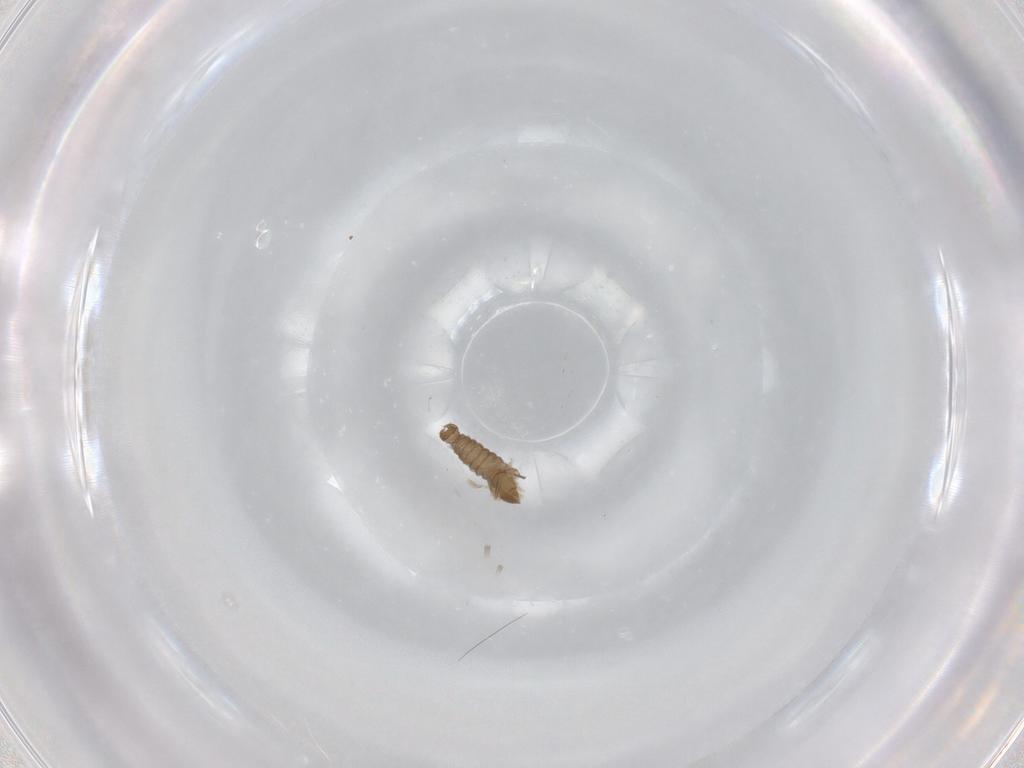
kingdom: Animalia
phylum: Arthropoda
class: Insecta
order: Diptera
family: Cecidomyiidae
